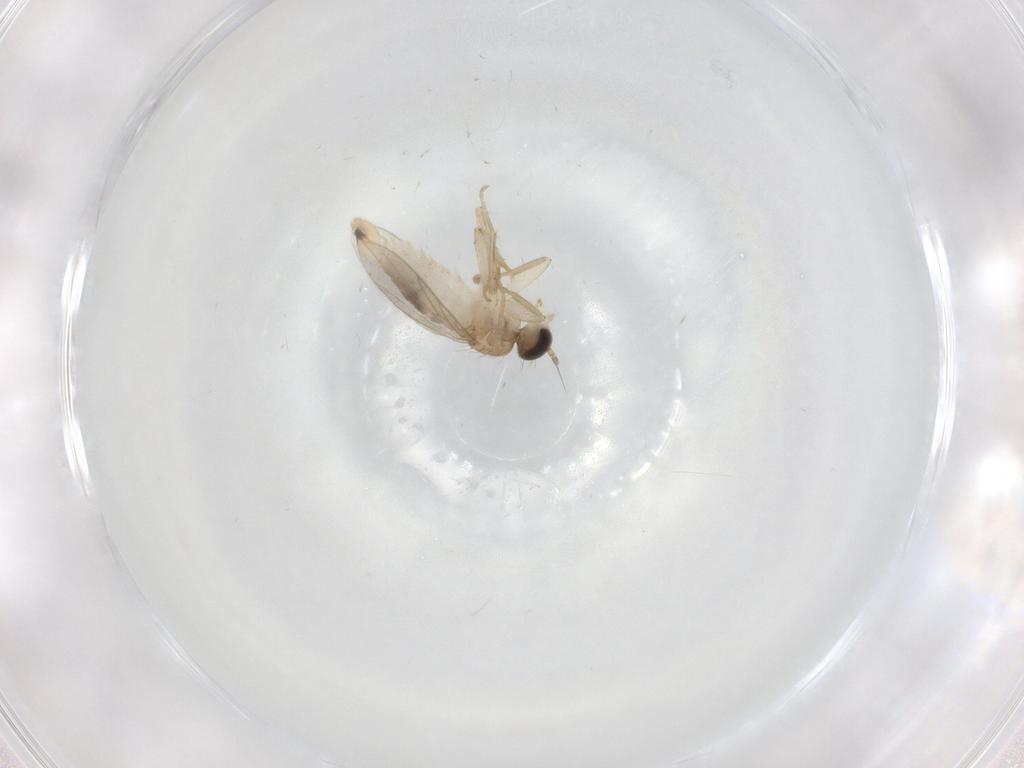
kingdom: Animalia
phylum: Arthropoda
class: Insecta
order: Diptera
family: Hybotidae
